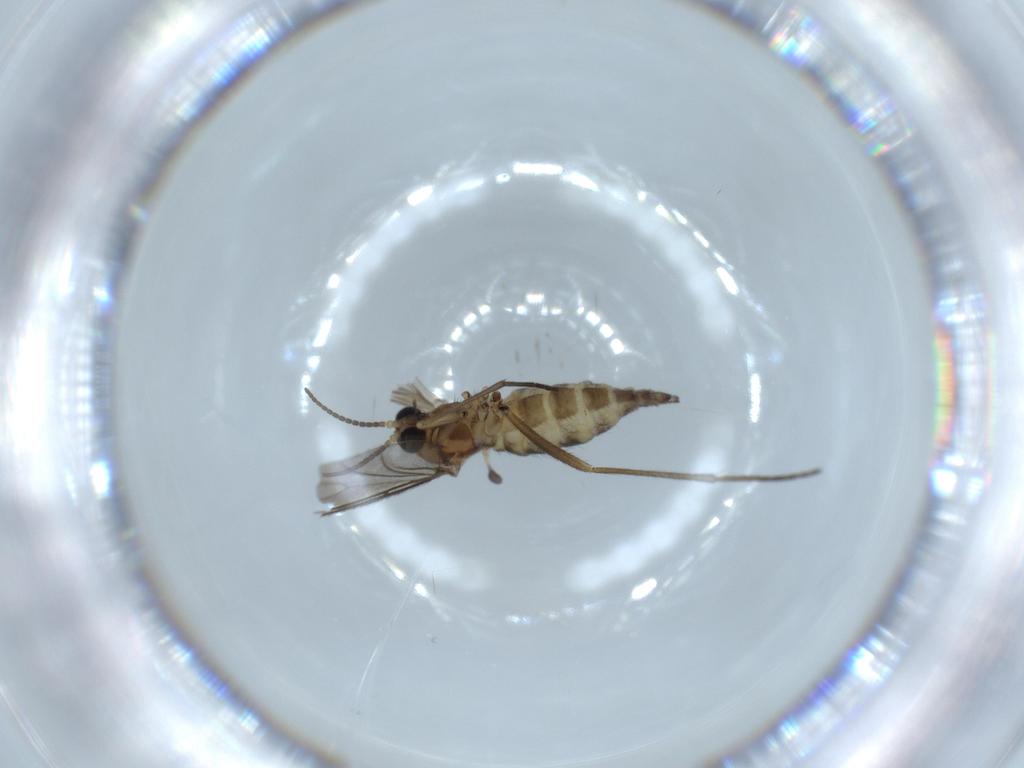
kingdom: Animalia
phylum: Arthropoda
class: Insecta
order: Diptera
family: Sciaridae
